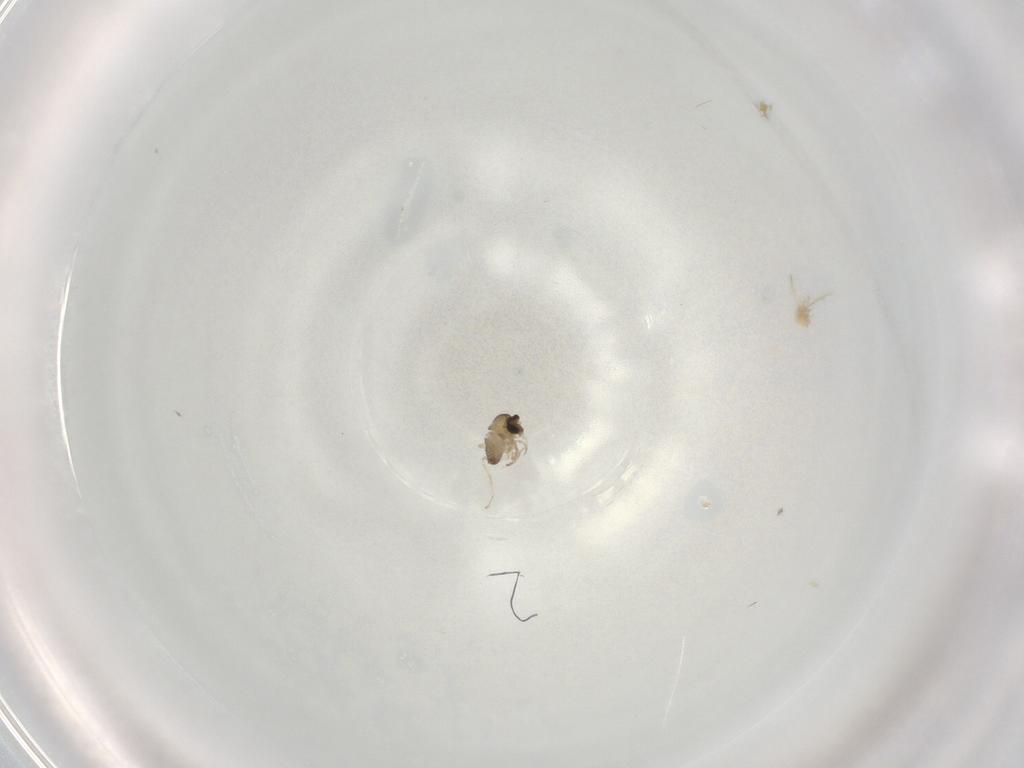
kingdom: Animalia
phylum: Arthropoda
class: Insecta
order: Diptera
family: Cecidomyiidae
